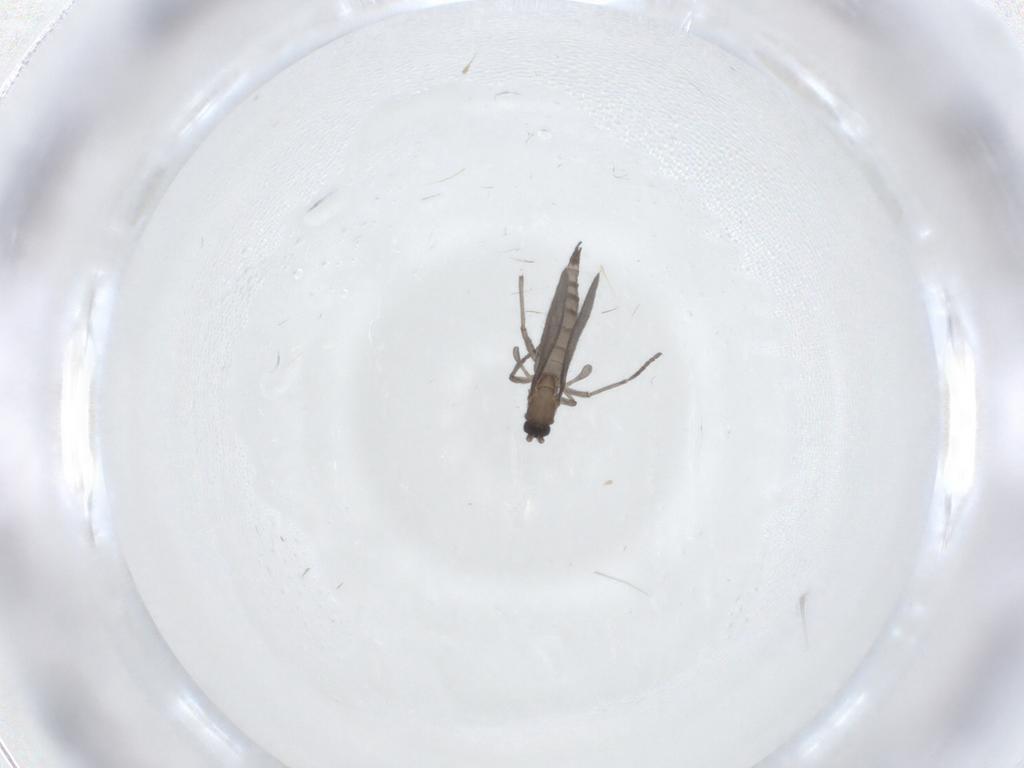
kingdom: Animalia
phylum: Arthropoda
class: Insecta
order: Diptera
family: Sciaridae
